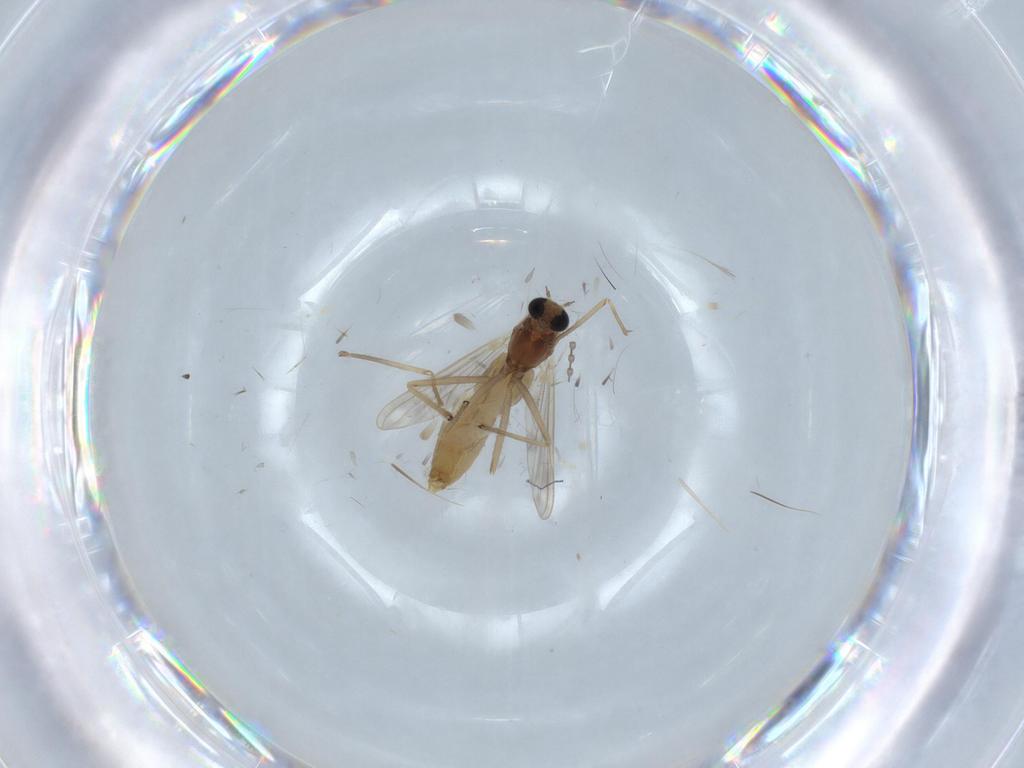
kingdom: Animalia
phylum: Arthropoda
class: Insecta
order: Diptera
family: Chironomidae
